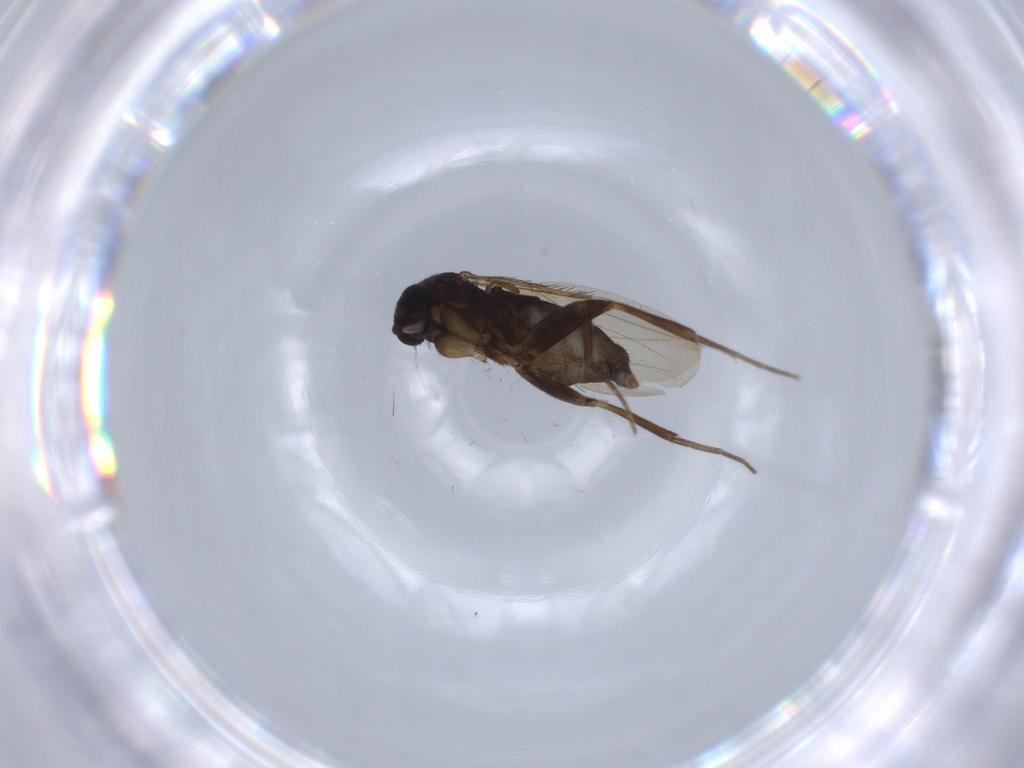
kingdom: Animalia
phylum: Arthropoda
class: Insecta
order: Diptera
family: Phoridae
